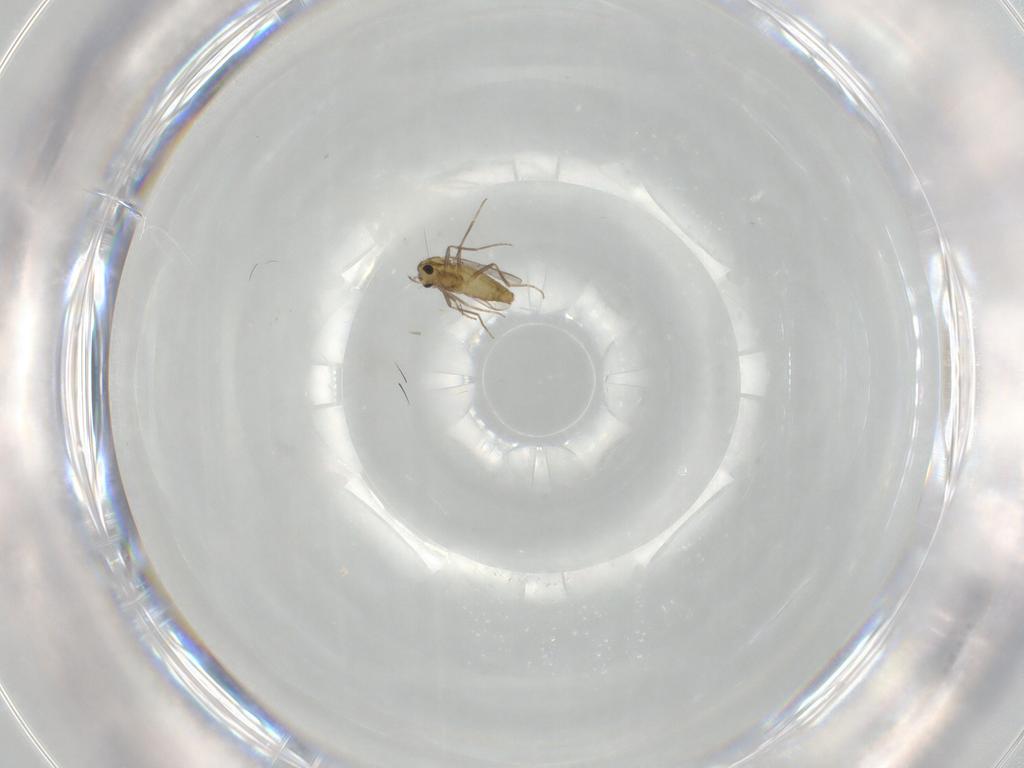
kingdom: Animalia
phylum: Arthropoda
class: Insecta
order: Diptera
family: Chironomidae
